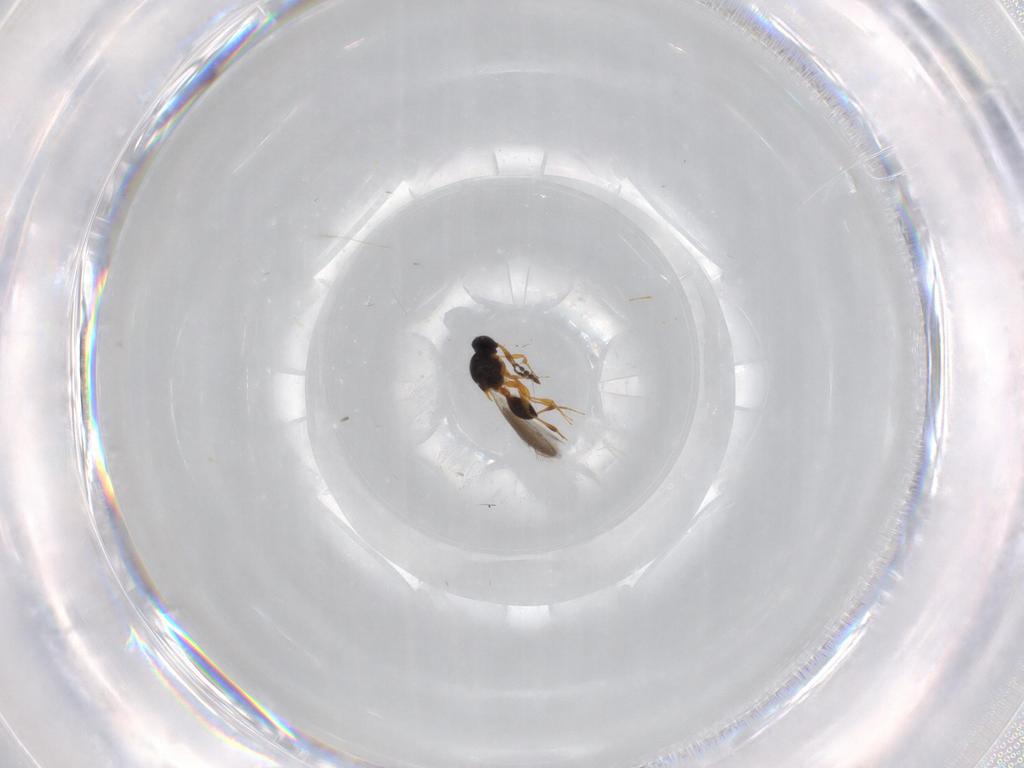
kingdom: Animalia
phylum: Arthropoda
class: Insecta
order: Hymenoptera
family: Platygastridae
